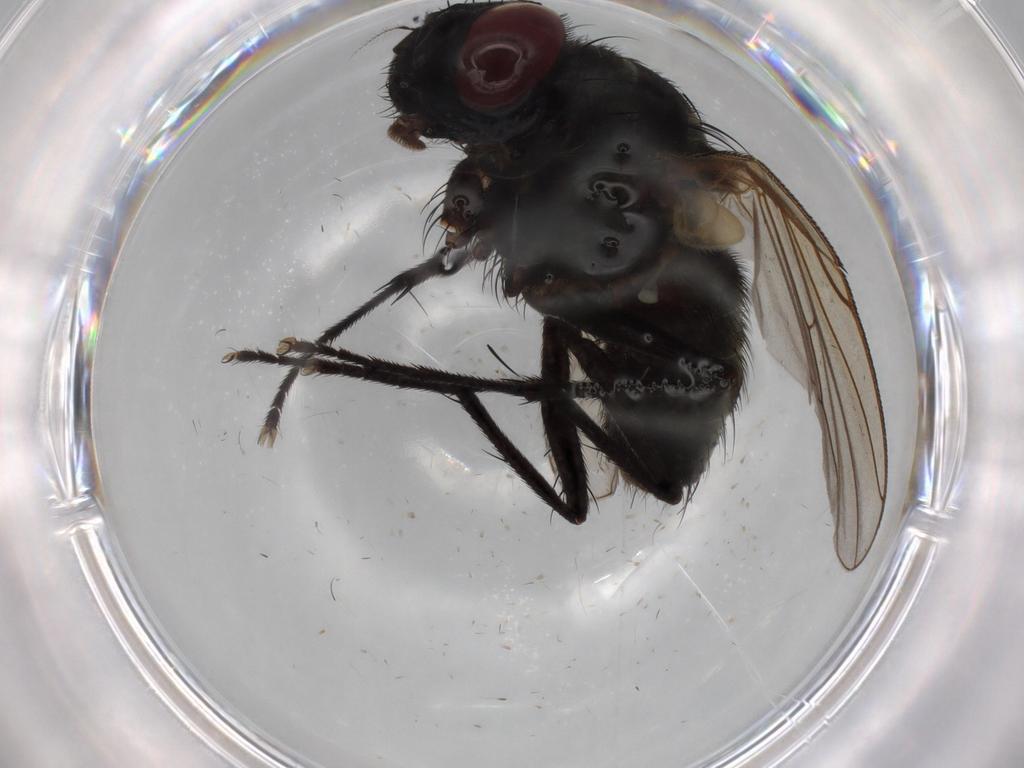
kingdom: Animalia
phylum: Arthropoda
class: Insecta
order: Diptera
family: Muscidae
